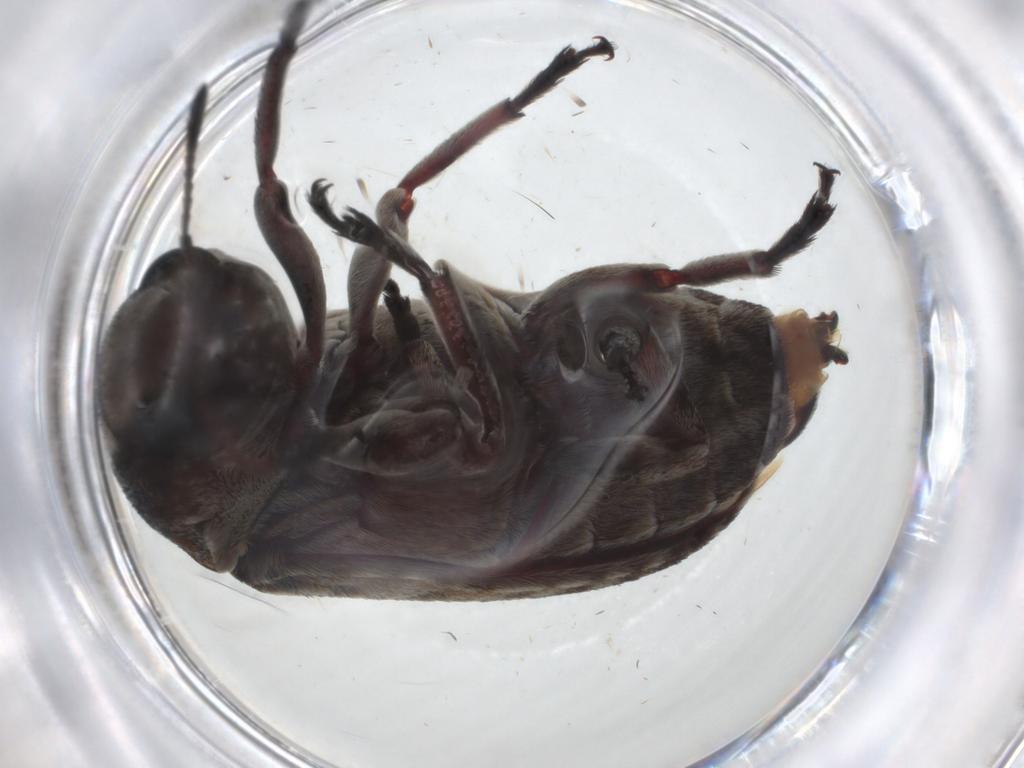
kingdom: Animalia
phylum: Arthropoda
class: Insecta
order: Coleoptera
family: Anthribidae
